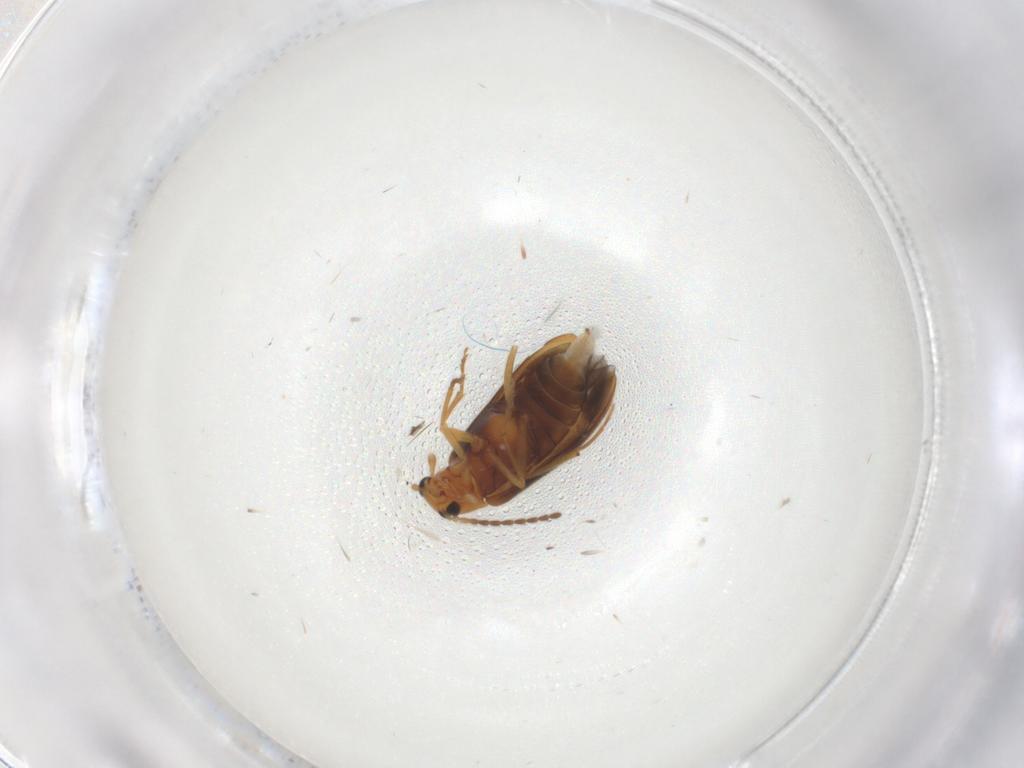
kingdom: Animalia
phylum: Arthropoda
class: Insecta
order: Coleoptera
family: Melandryidae
